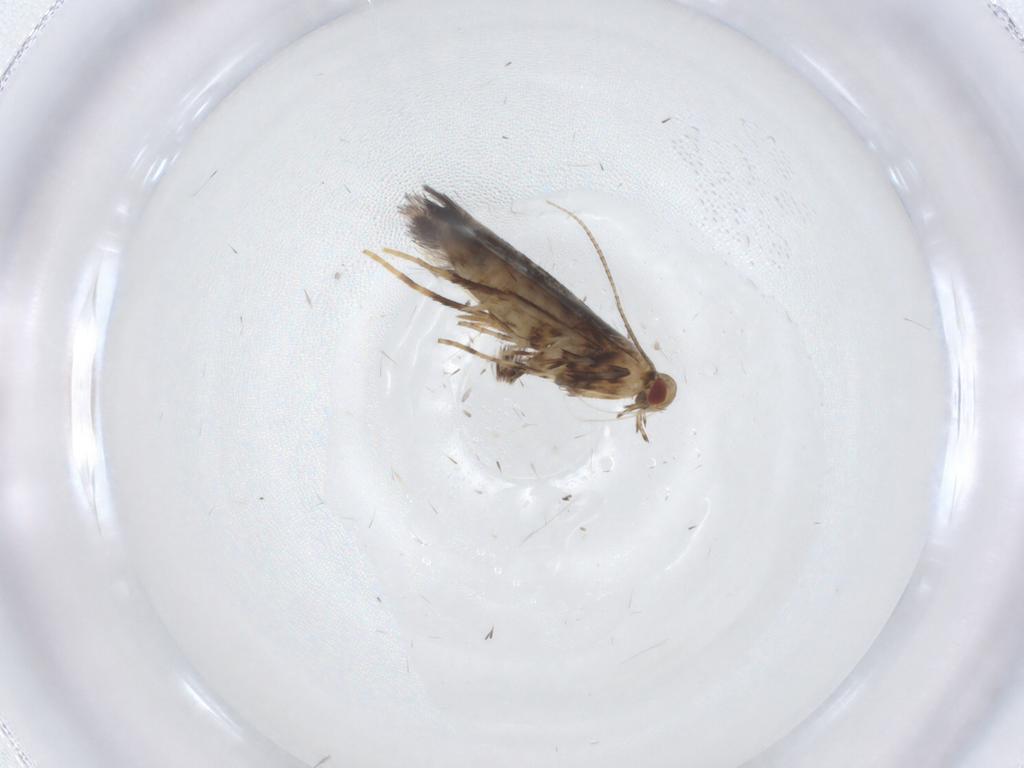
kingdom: Animalia
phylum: Arthropoda
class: Insecta
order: Lepidoptera
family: Gracillariidae
